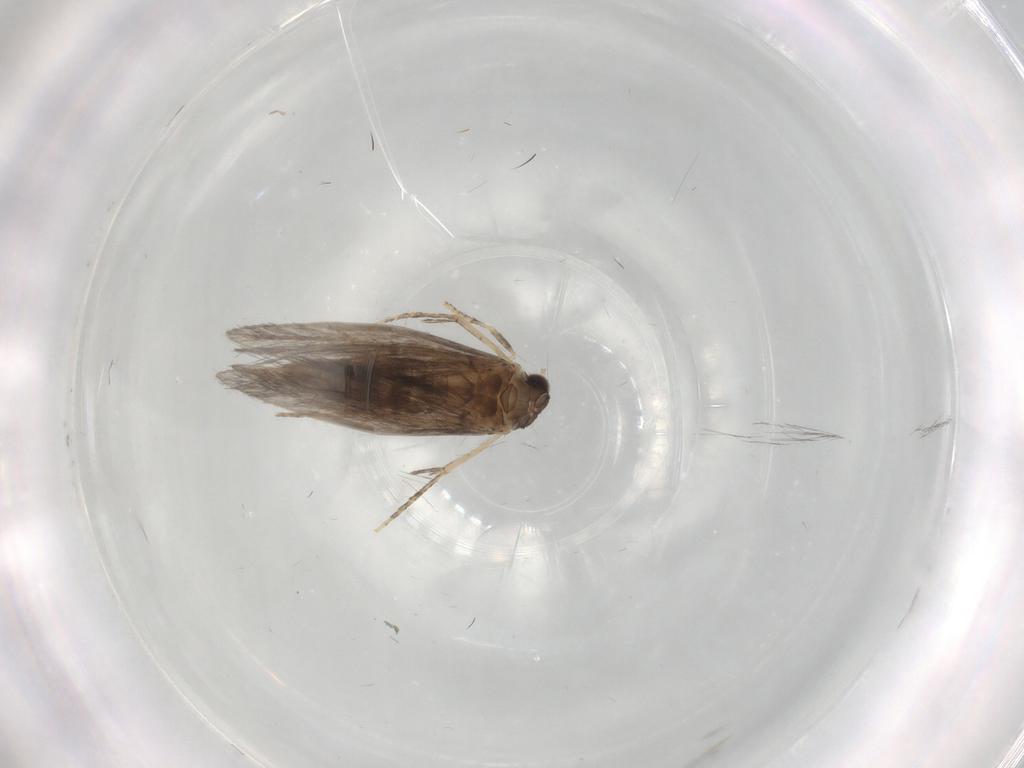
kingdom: Animalia
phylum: Arthropoda
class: Insecta
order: Trichoptera
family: Hydroptilidae
